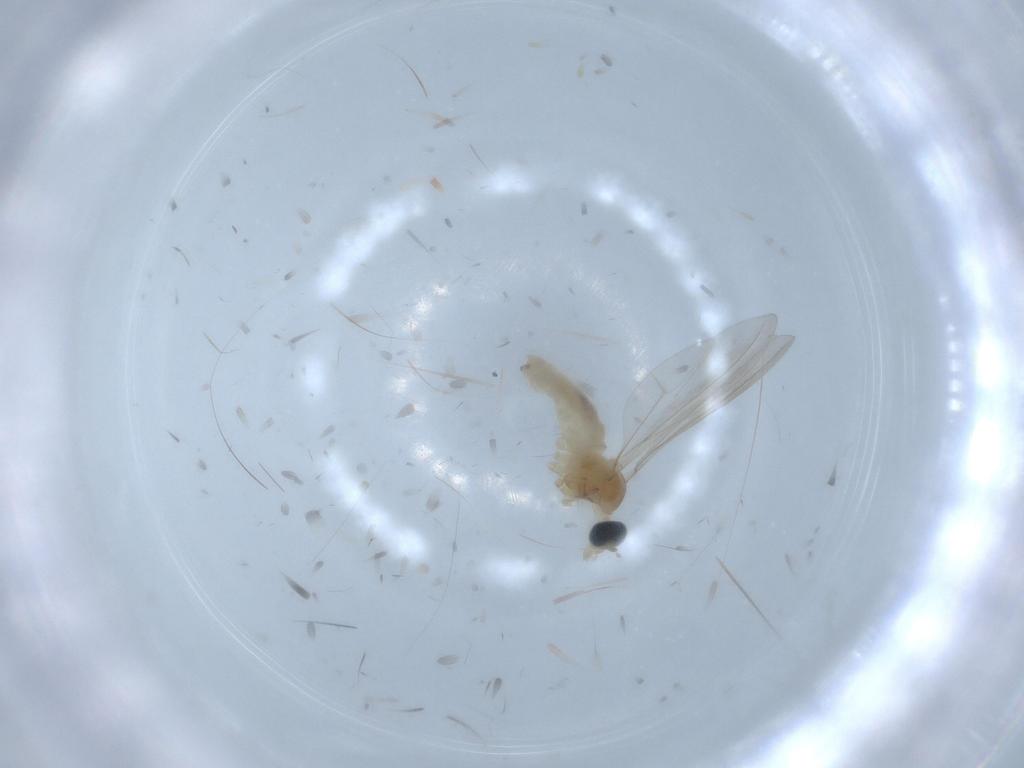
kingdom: Animalia
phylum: Arthropoda
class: Insecta
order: Diptera
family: Cecidomyiidae
